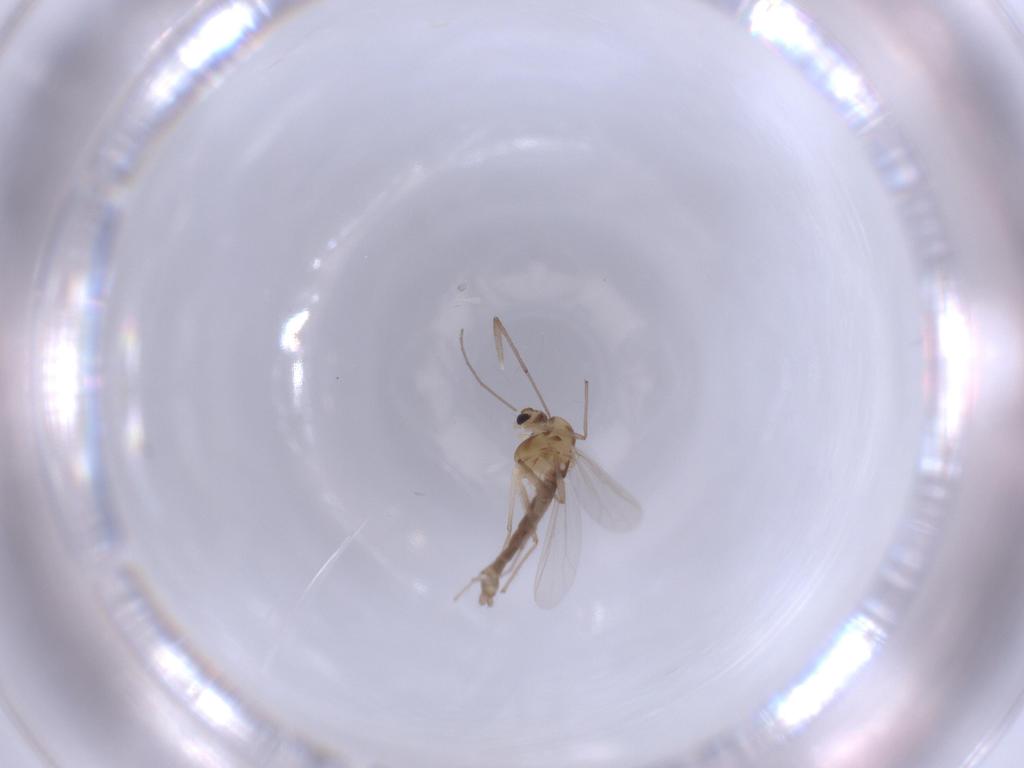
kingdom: Animalia
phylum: Arthropoda
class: Insecta
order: Diptera
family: Chironomidae
